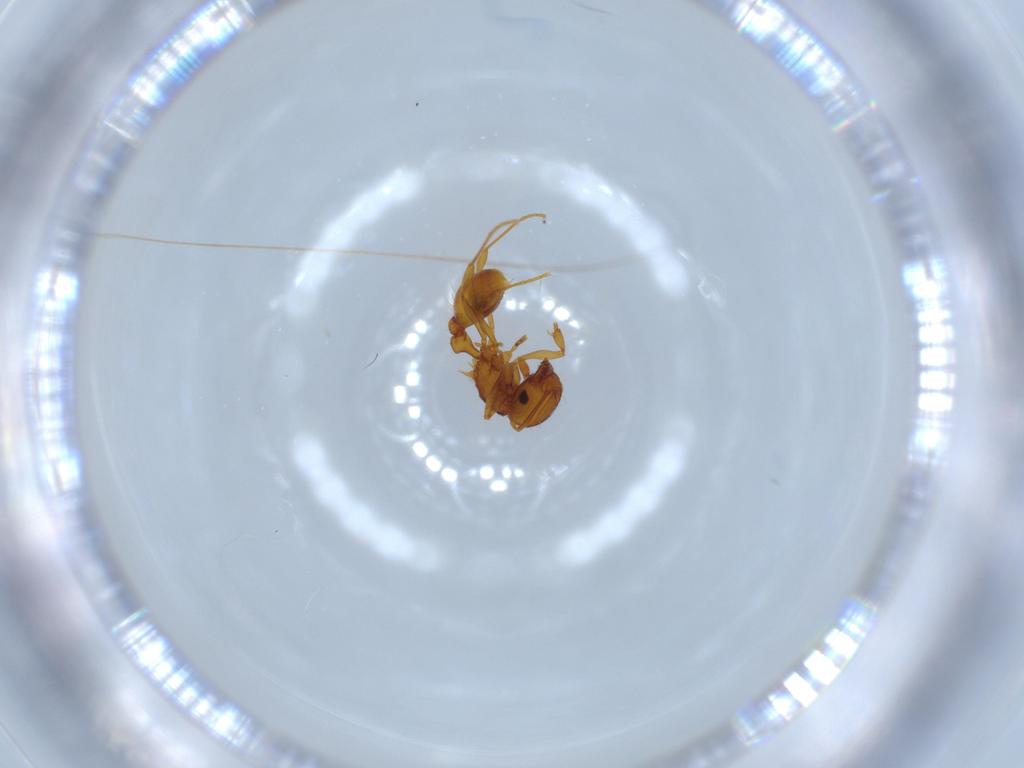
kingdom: Animalia
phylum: Arthropoda
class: Insecta
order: Hymenoptera
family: Formicidae
